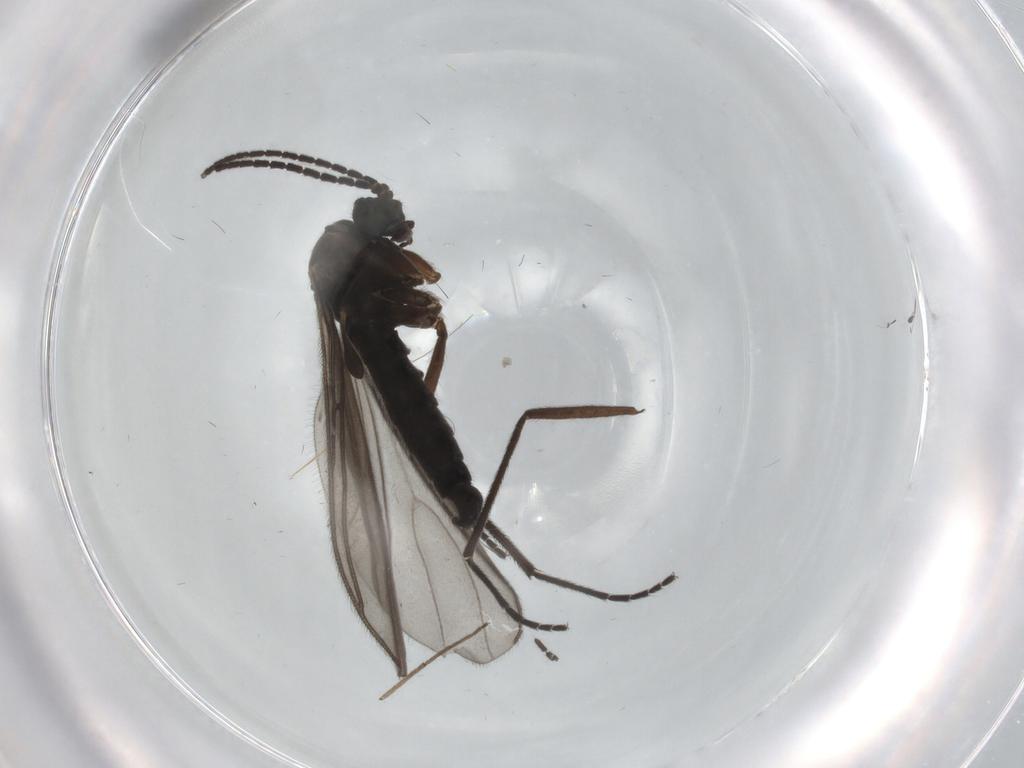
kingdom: Animalia
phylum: Arthropoda
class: Insecta
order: Diptera
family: Sciaridae
